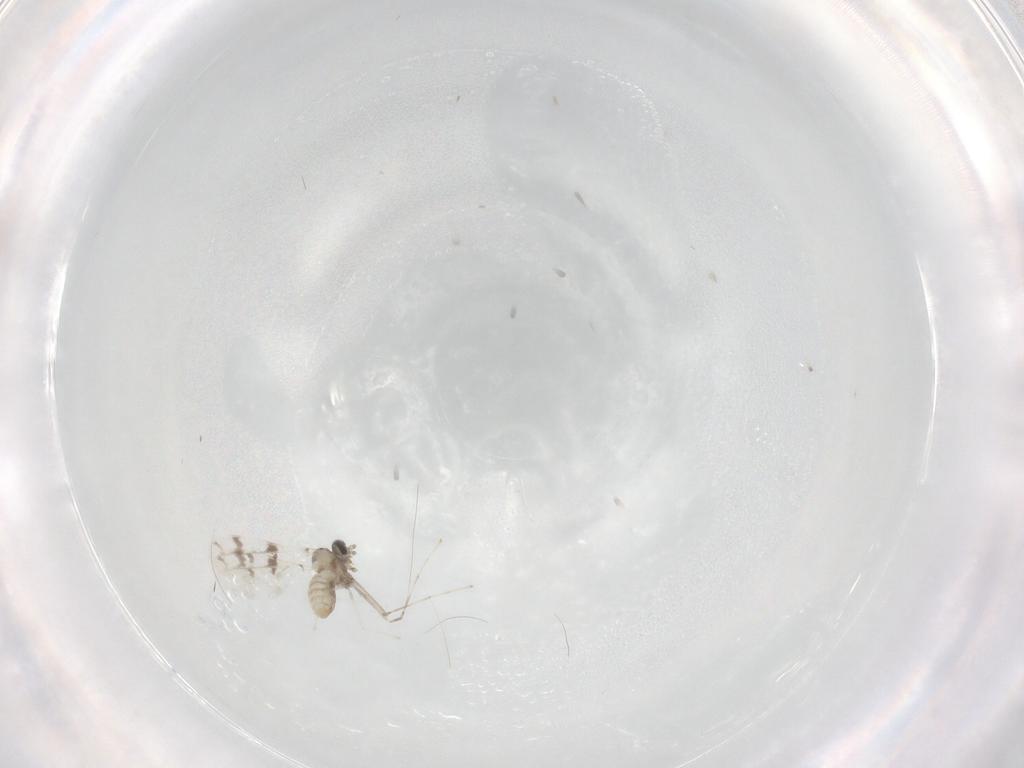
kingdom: Animalia
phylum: Arthropoda
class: Insecta
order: Diptera
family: Cecidomyiidae
